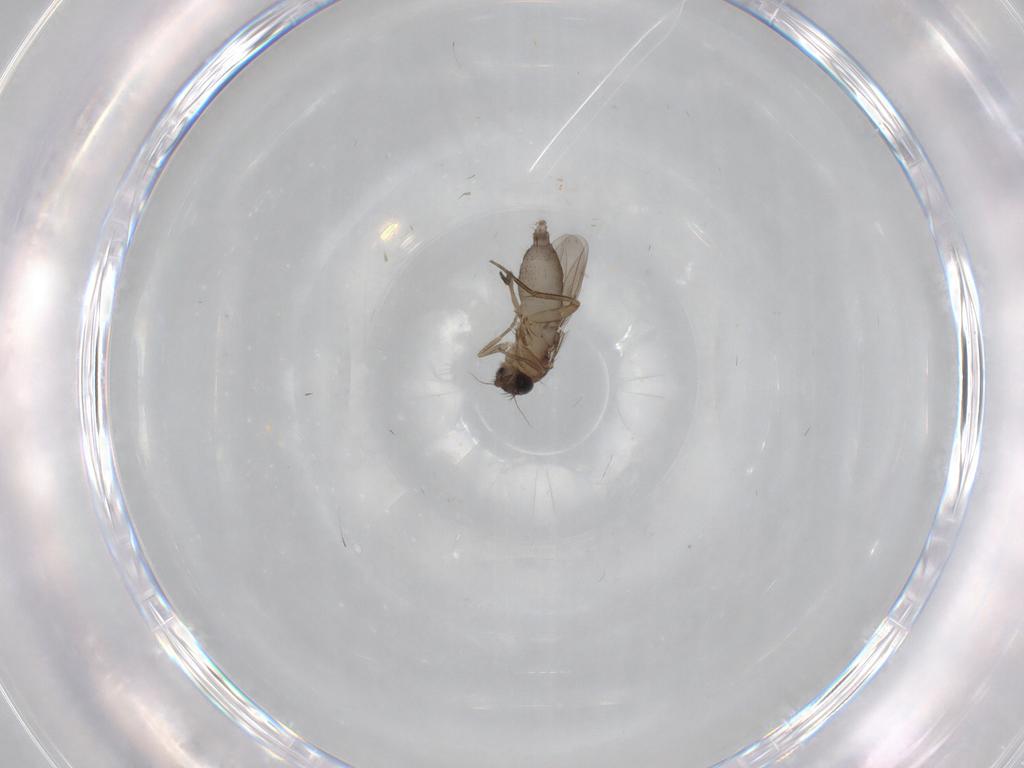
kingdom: Animalia
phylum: Arthropoda
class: Insecta
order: Diptera
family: Phoridae
